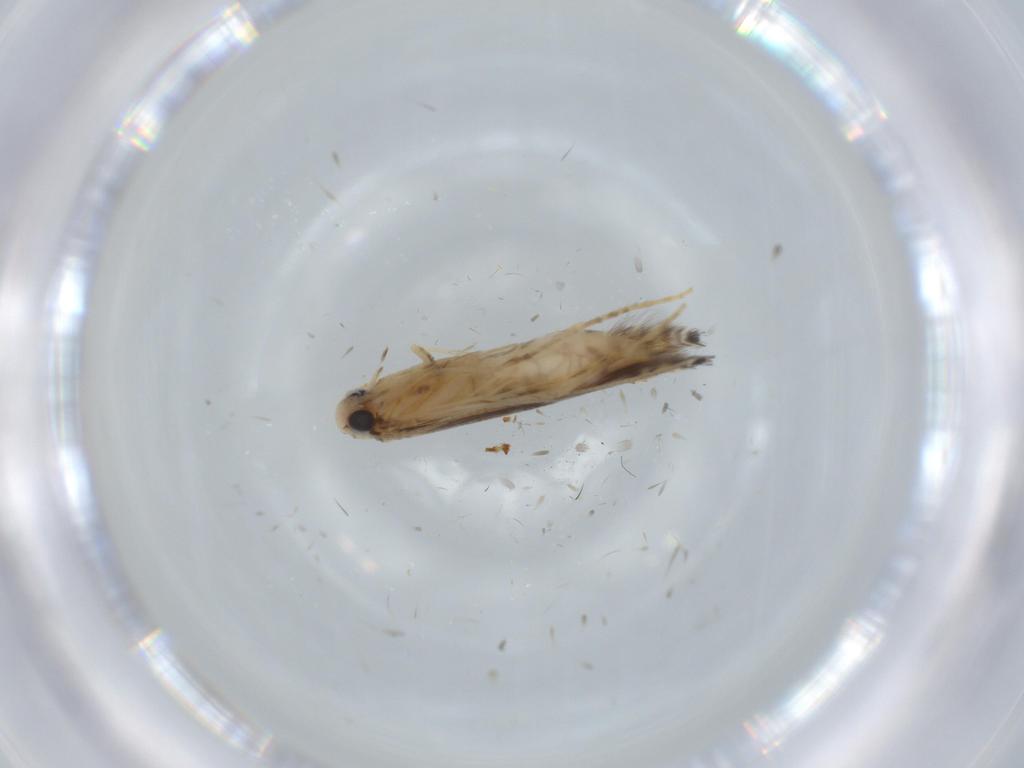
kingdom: Animalia
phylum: Arthropoda
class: Insecta
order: Lepidoptera
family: Gracillariidae
